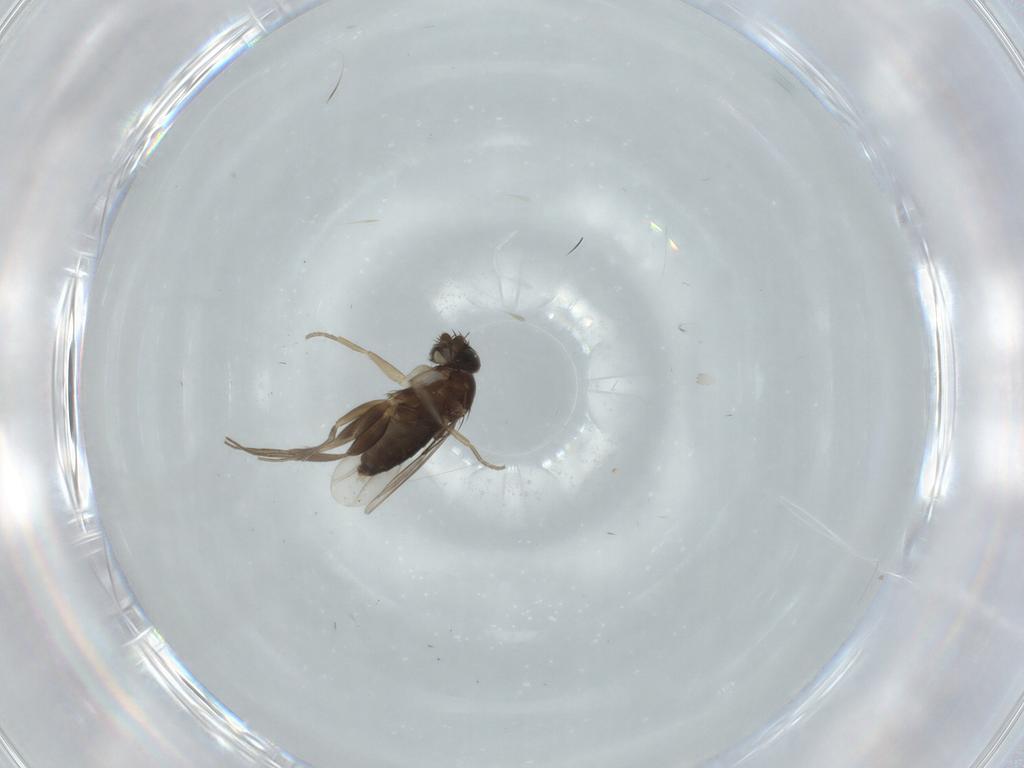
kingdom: Animalia
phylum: Arthropoda
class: Insecta
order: Diptera
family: Phoridae
